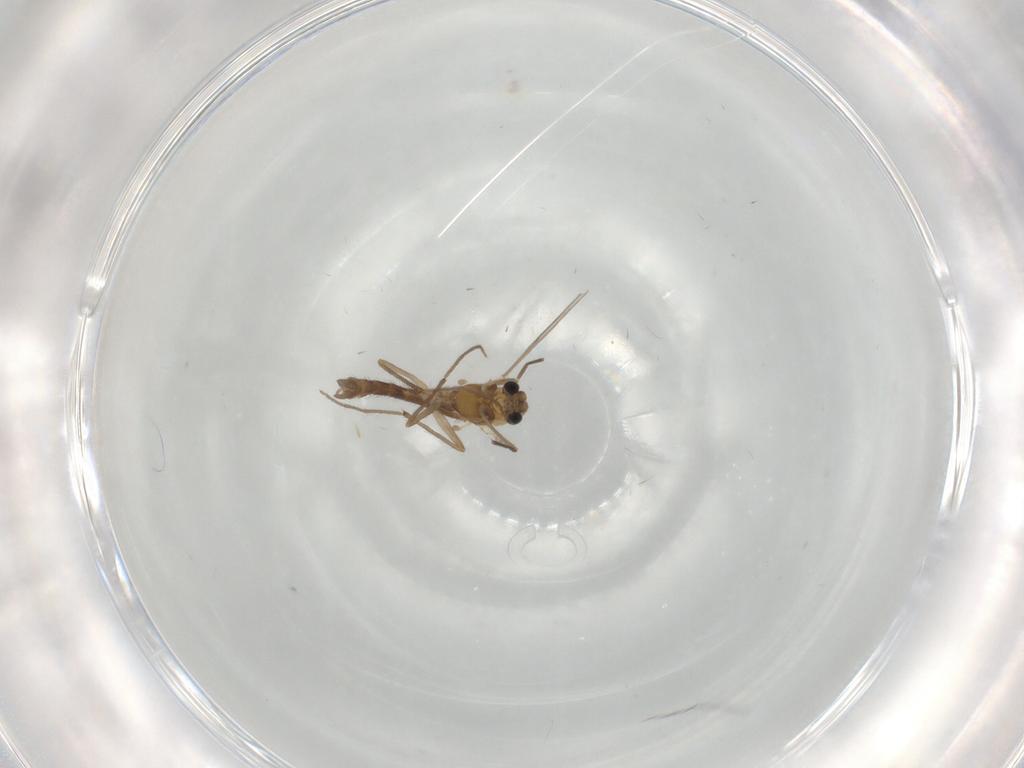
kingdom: Animalia
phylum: Arthropoda
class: Insecta
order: Diptera
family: Chironomidae
